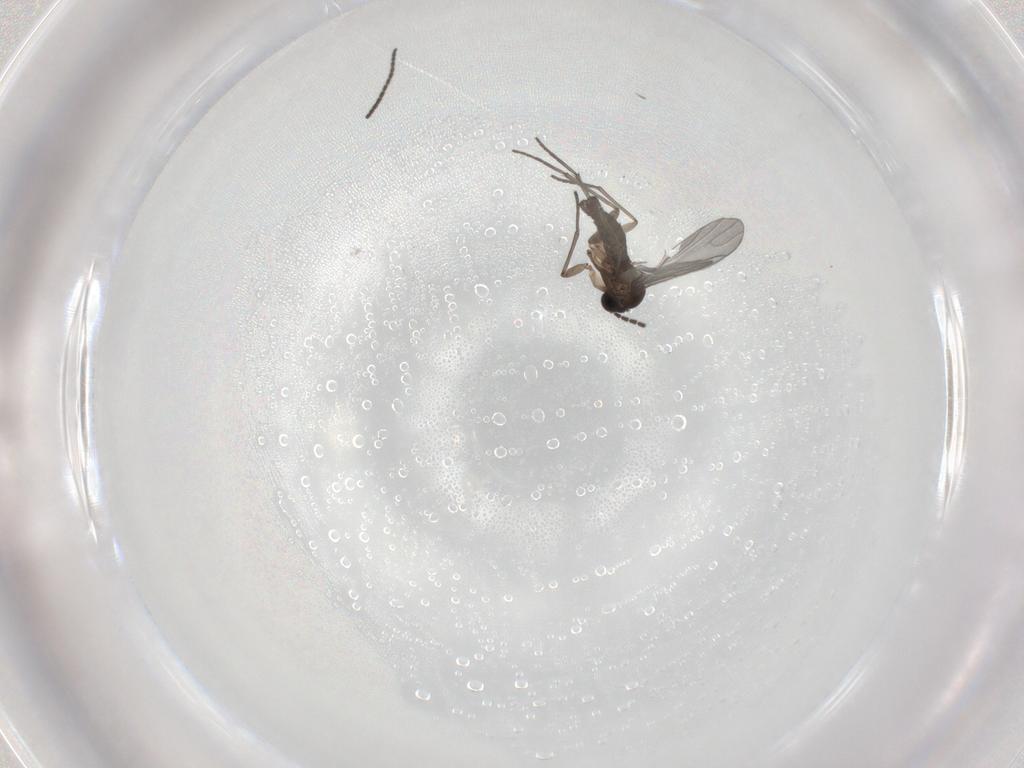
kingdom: Animalia
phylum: Arthropoda
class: Insecta
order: Diptera
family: Sciaridae
